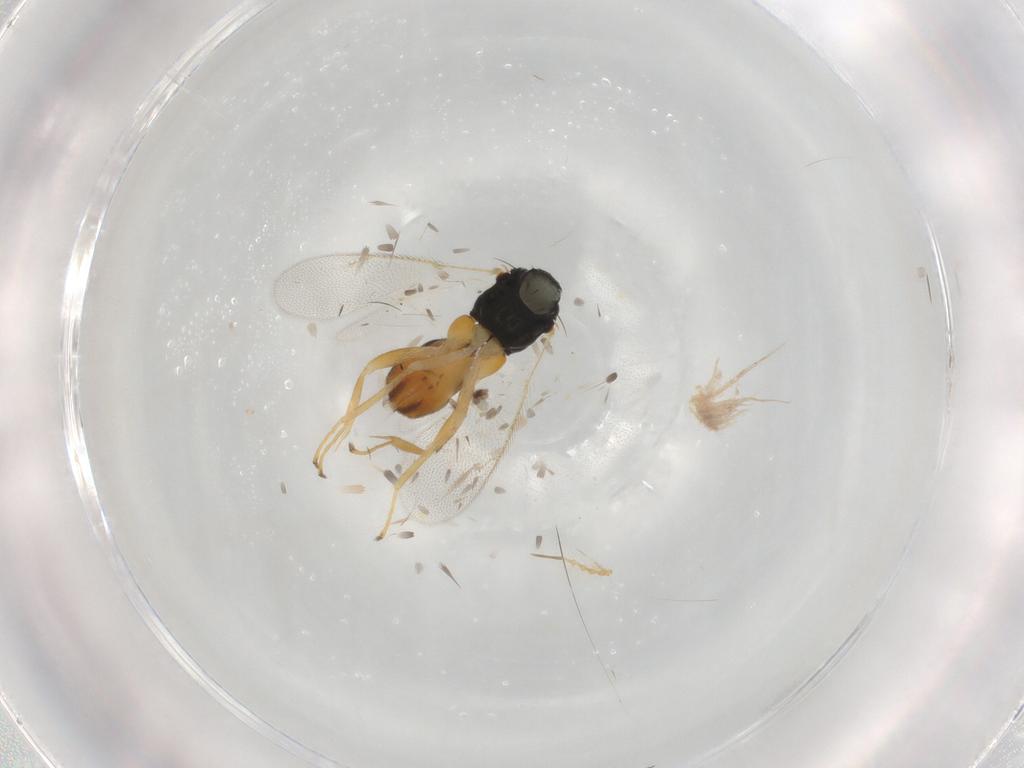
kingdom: Animalia
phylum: Arthropoda
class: Insecta
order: Hymenoptera
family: Eulophidae
